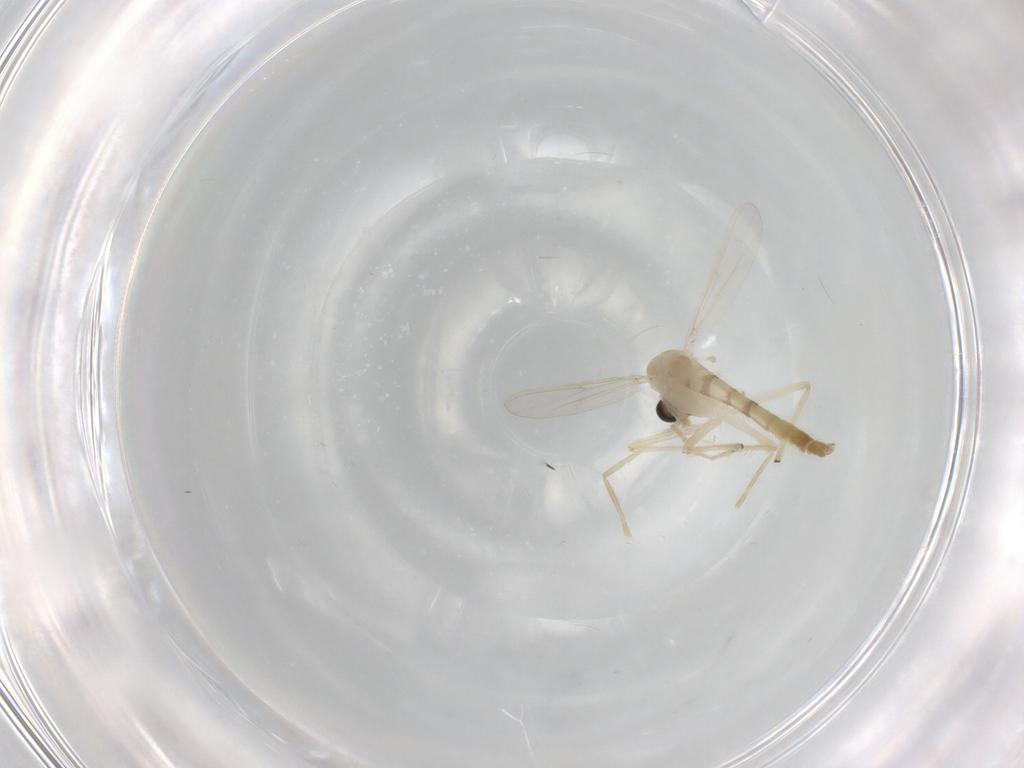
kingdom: Animalia
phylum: Arthropoda
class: Insecta
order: Diptera
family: Chironomidae
